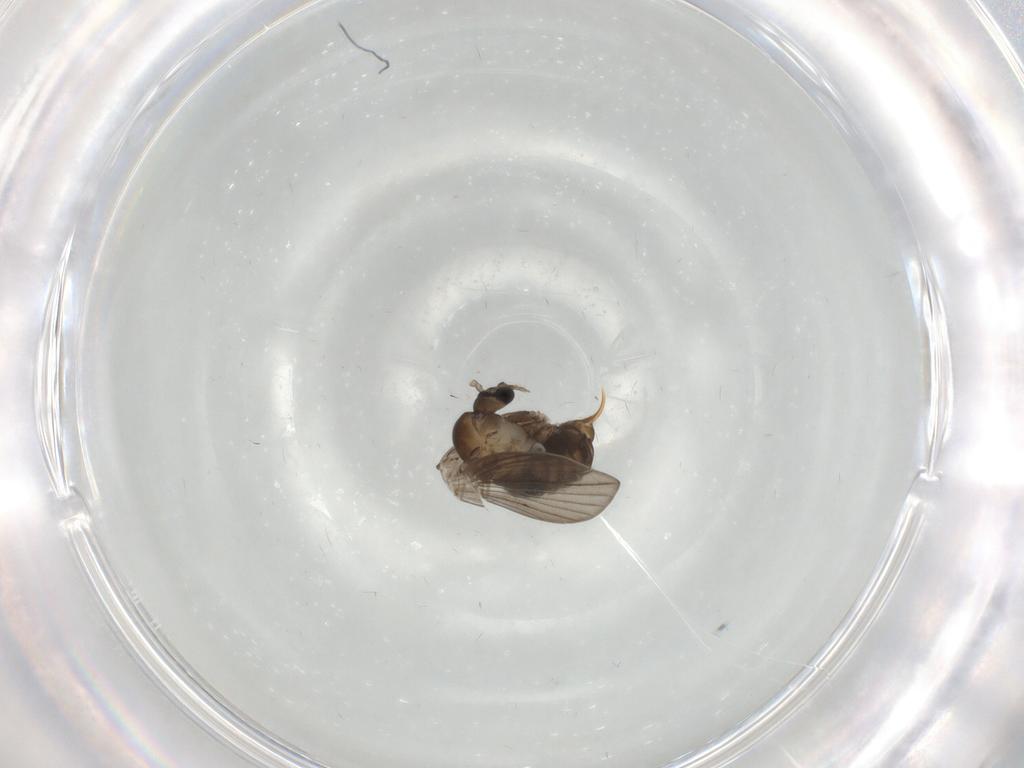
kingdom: Animalia
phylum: Arthropoda
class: Insecta
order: Diptera
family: Psychodidae
